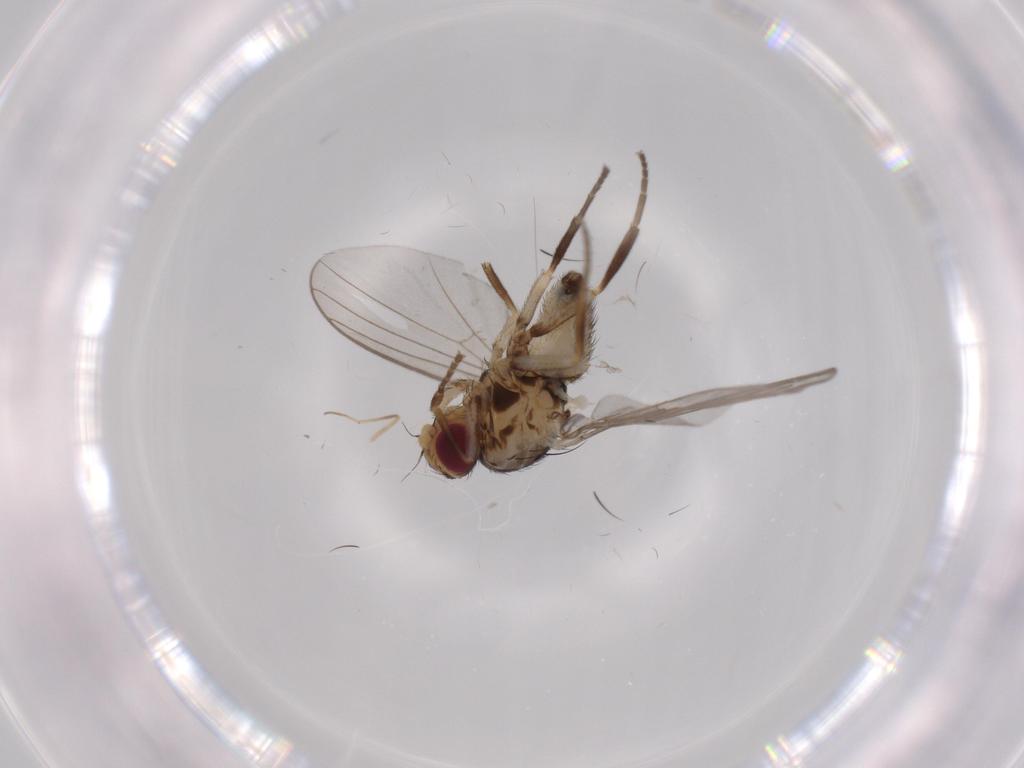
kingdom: Animalia
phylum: Arthropoda
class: Insecta
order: Diptera
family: Agromyzidae
